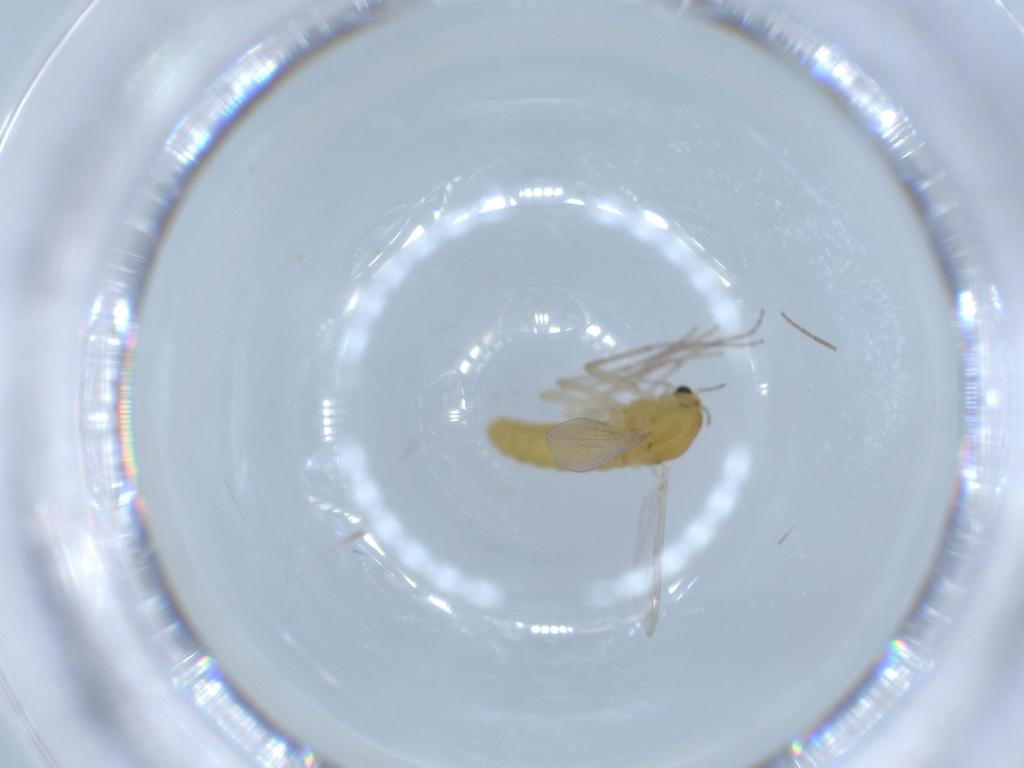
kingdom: Animalia
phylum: Arthropoda
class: Insecta
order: Diptera
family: Chironomidae
